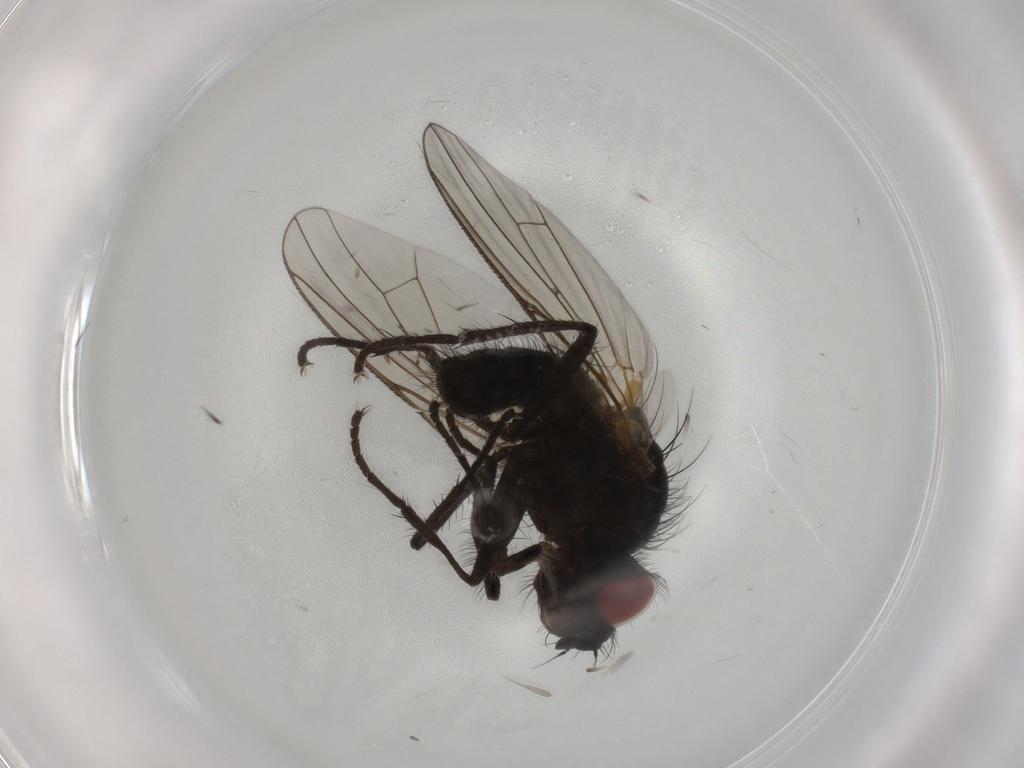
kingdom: Animalia
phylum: Arthropoda
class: Insecta
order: Diptera
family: Anthomyiidae
